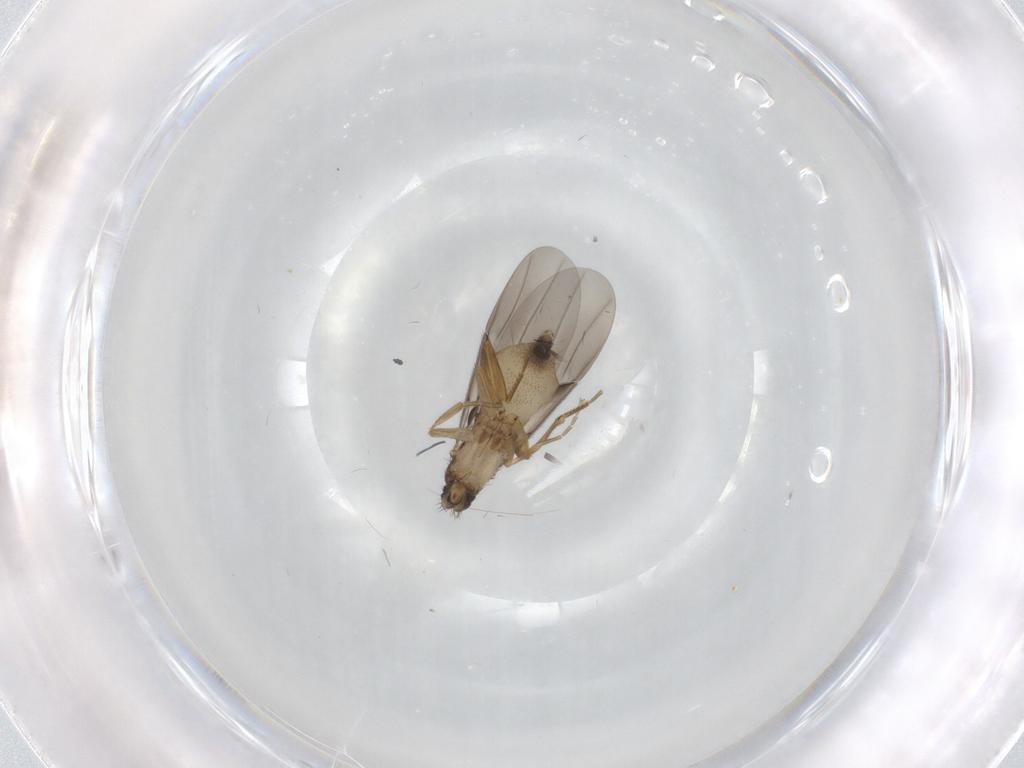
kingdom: Animalia
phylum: Arthropoda
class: Insecta
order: Diptera
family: Phoridae
